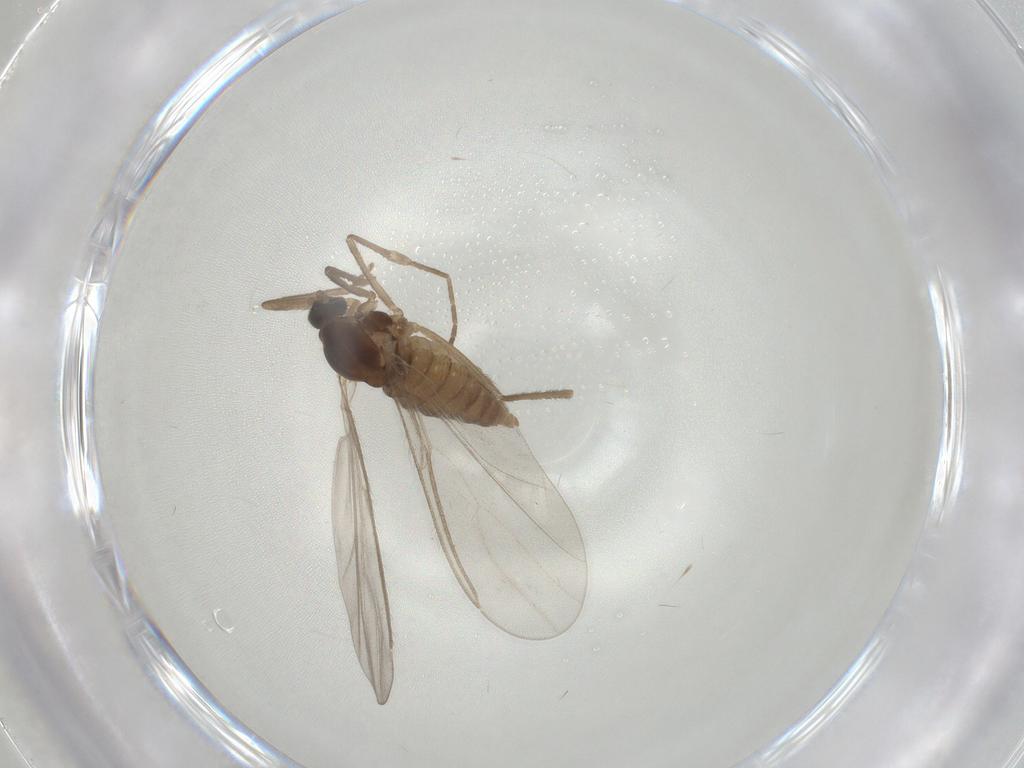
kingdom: Animalia
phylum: Arthropoda
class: Insecta
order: Diptera
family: Cecidomyiidae
